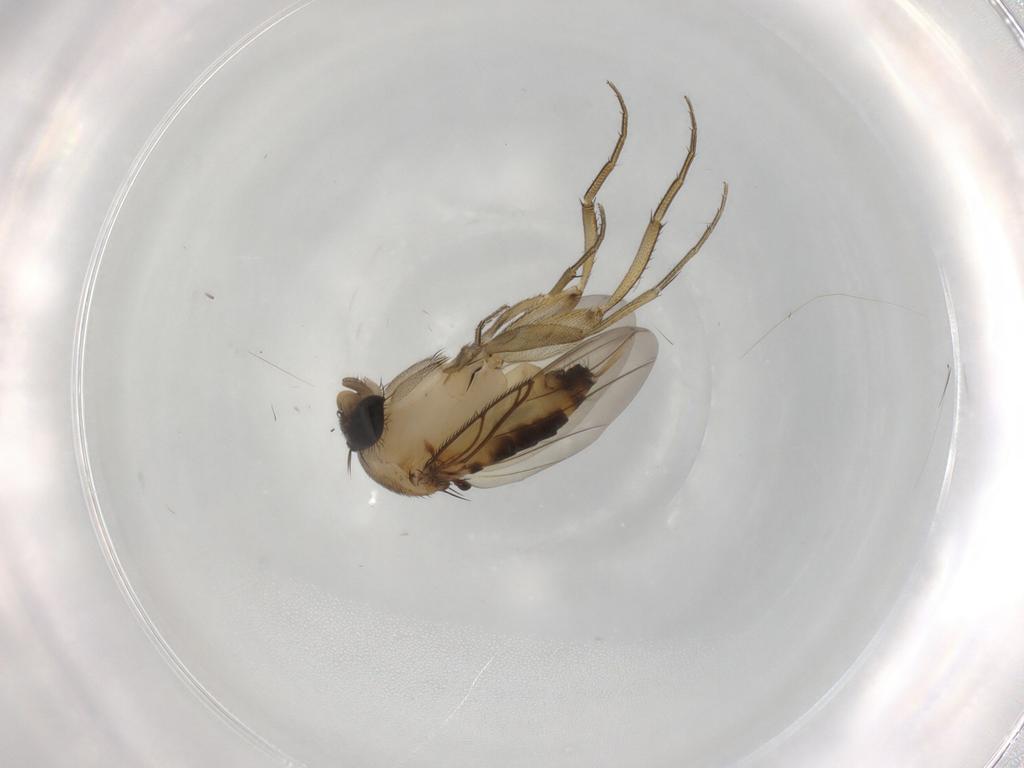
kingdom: Animalia
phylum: Arthropoda
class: Insecta
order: Diptera
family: Phoridae
